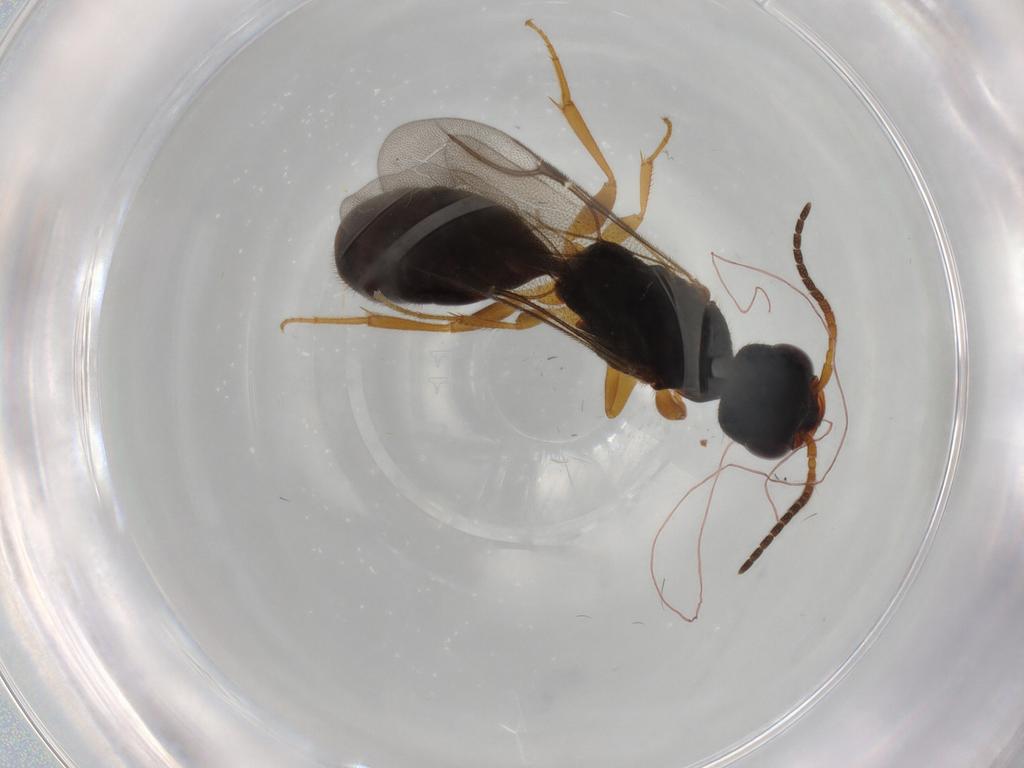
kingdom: Animalia
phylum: Arthropoda
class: Insecta
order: Hymenoptera
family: Bethylidae
